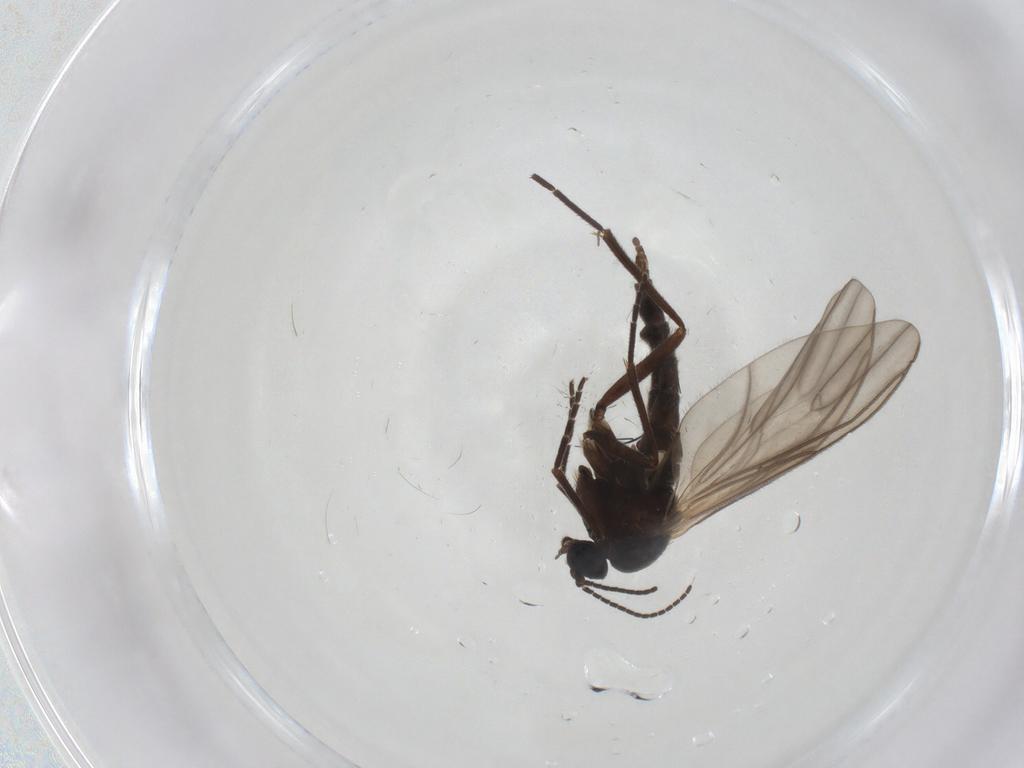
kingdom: Animalia
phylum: Arthropoda
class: Insecta
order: Diptera
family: Sciaridae
